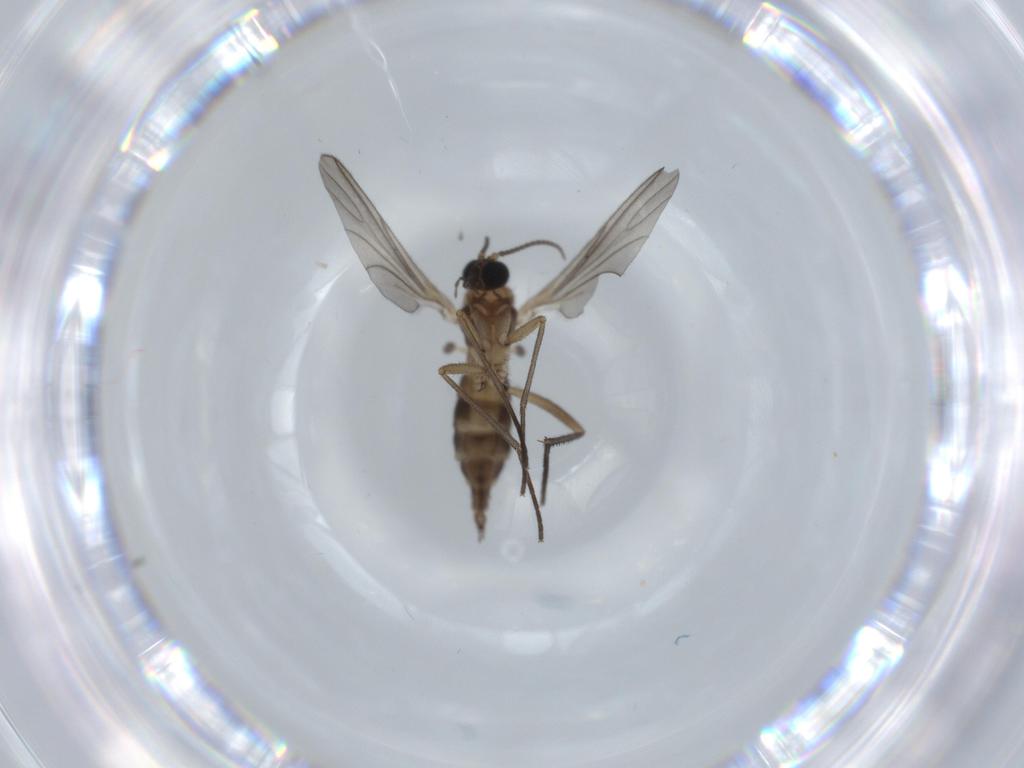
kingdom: Animalia
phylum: Arthropoda
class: Insecta
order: Diptera
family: Sciaridae
